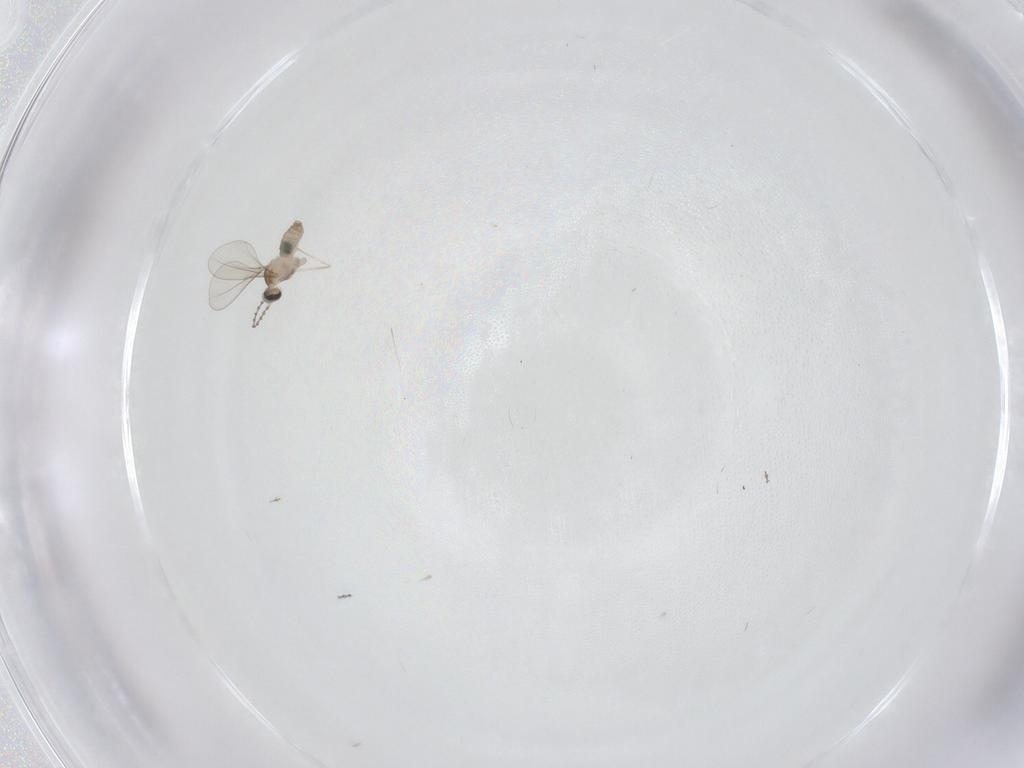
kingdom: Animalia
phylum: Arthropoda
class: Insecta
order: Diptera
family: Cecidomyiidae
